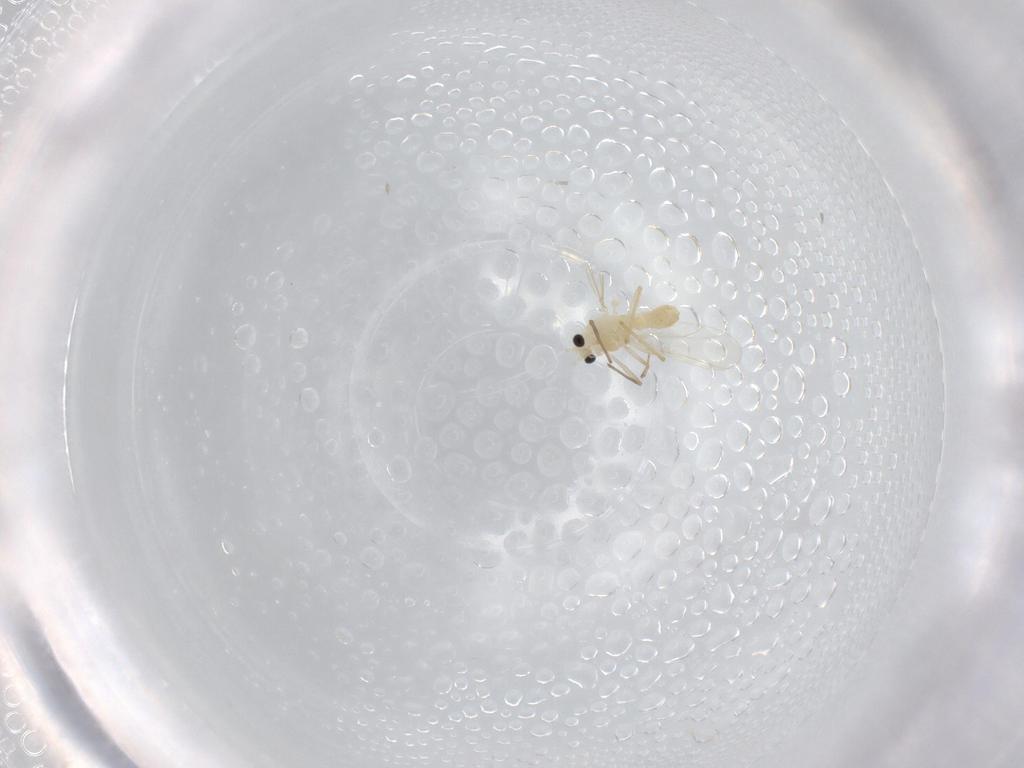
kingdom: Animalia
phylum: Arthropoda
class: Insecta
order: Diptera
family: Chironomidae
